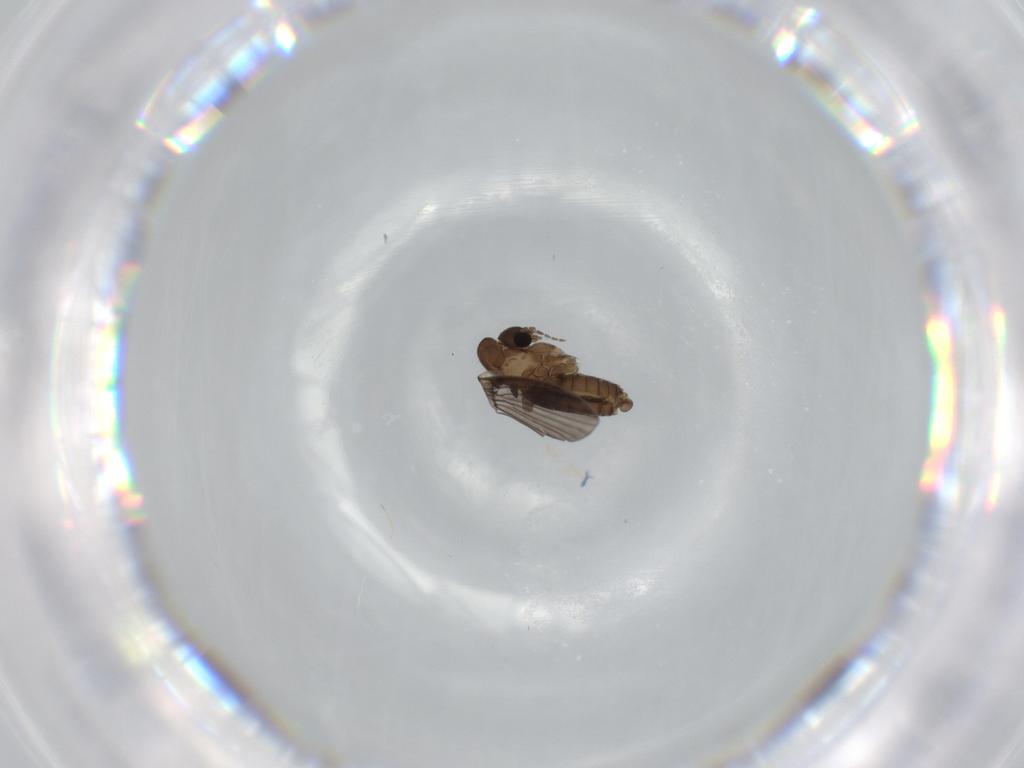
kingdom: Animalia
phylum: Arthropoda
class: Insecta
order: Diptera
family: Psychodidae
